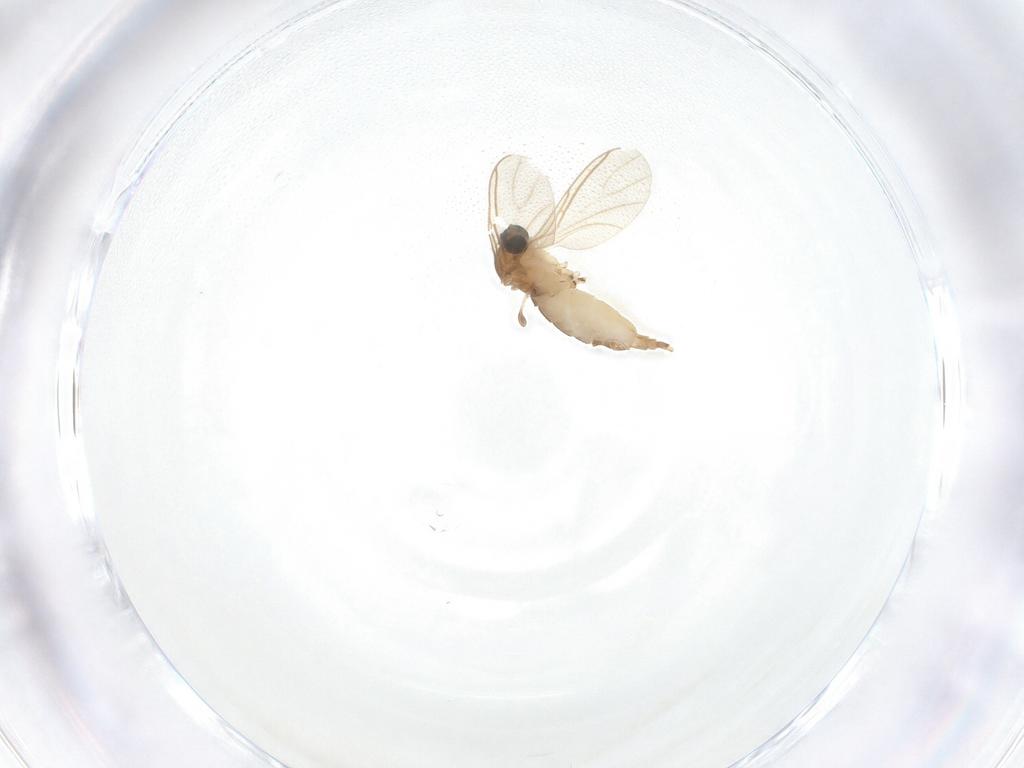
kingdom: Animalia
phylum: Arthropoda
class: Insecta
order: Diptera
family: Sciaridae
